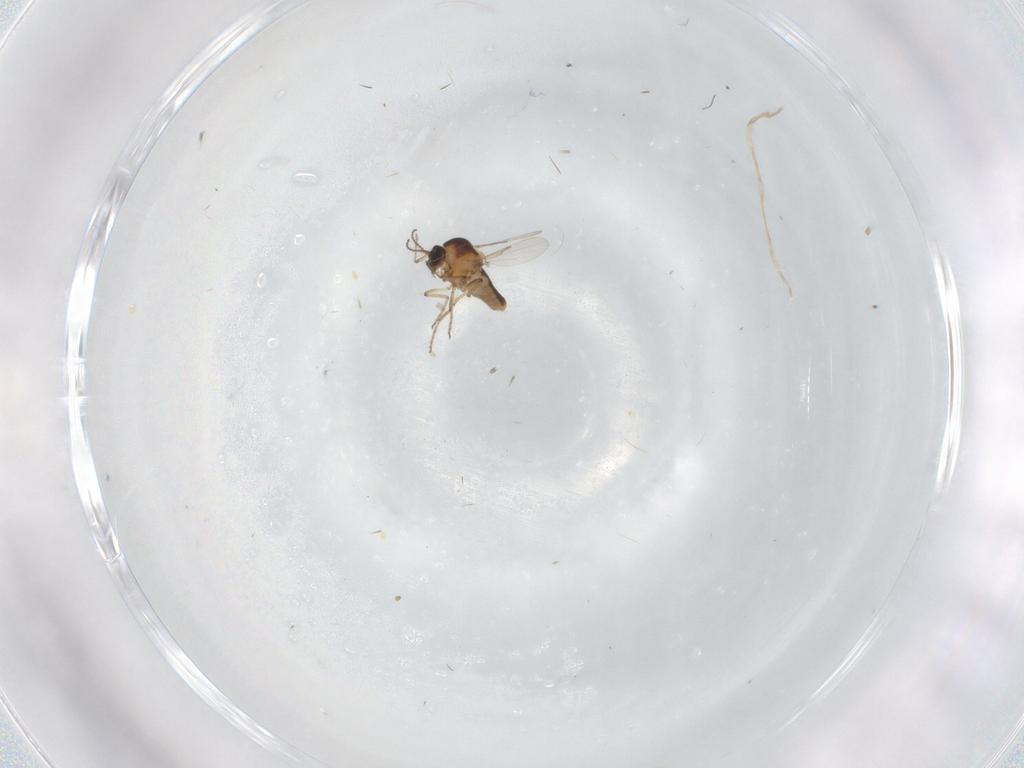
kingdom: Animalia
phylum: Arthropoda
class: Insecta
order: Diptera
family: Ceratopogonidae
